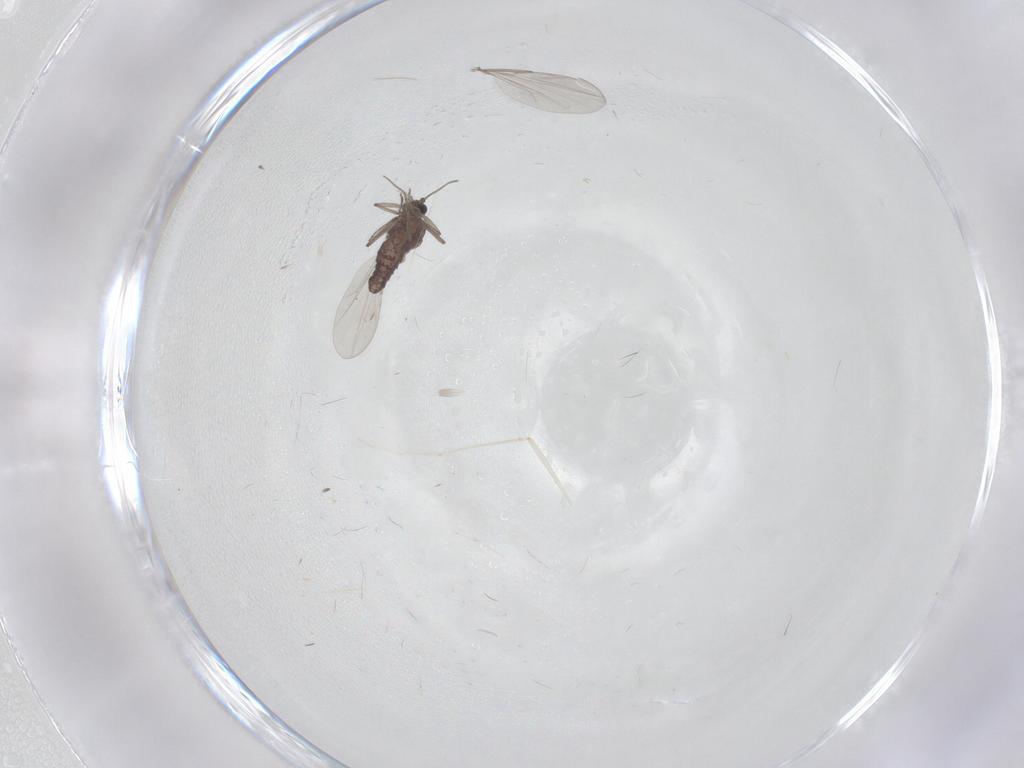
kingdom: Animalia
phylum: Arthropoda
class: Insecta
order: Diptera
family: Ceratopogonidae
